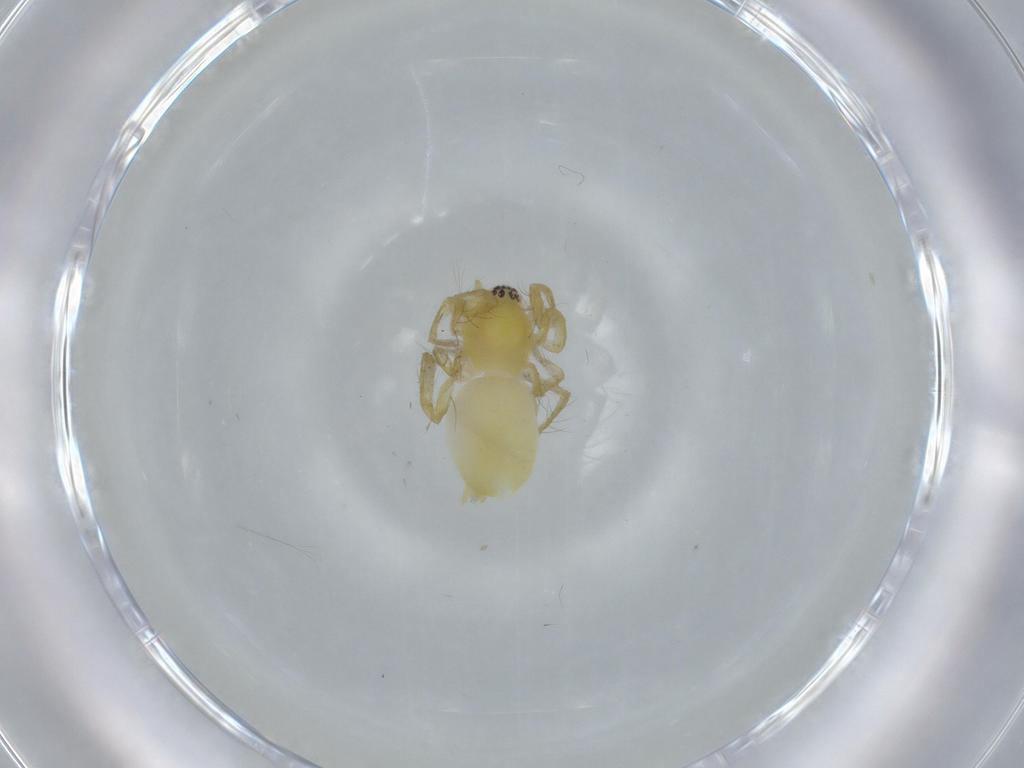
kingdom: Animalia
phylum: Arthropoda
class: Arachnida
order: Araneae
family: Anyphaenidae
